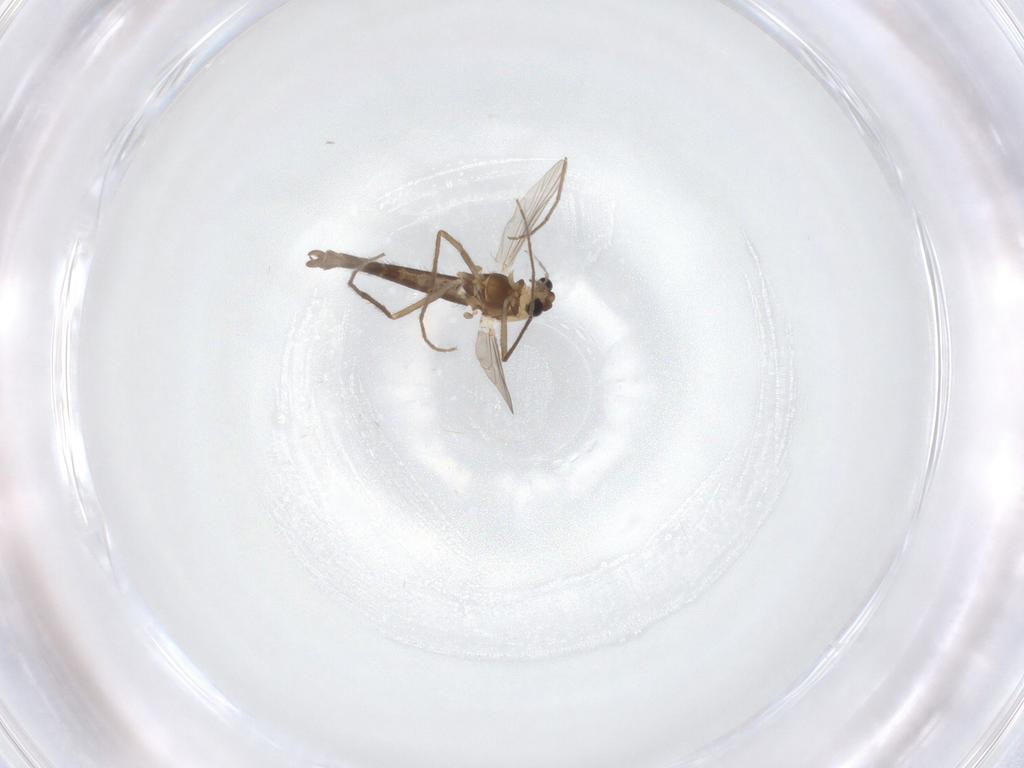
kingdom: Animalia
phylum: Arthropoda
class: Insecta
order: Diptera
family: Chironomidae
